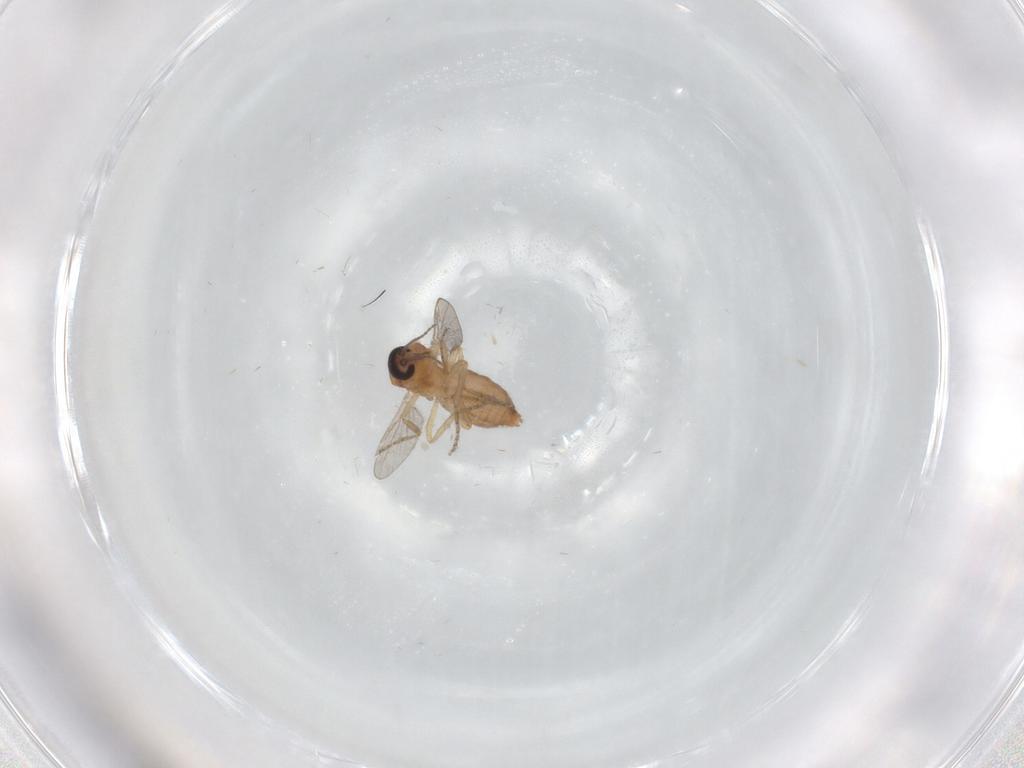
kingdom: Animalia
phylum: Arthropoda
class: Insecta
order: Diptera
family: Ceratopogonidae
